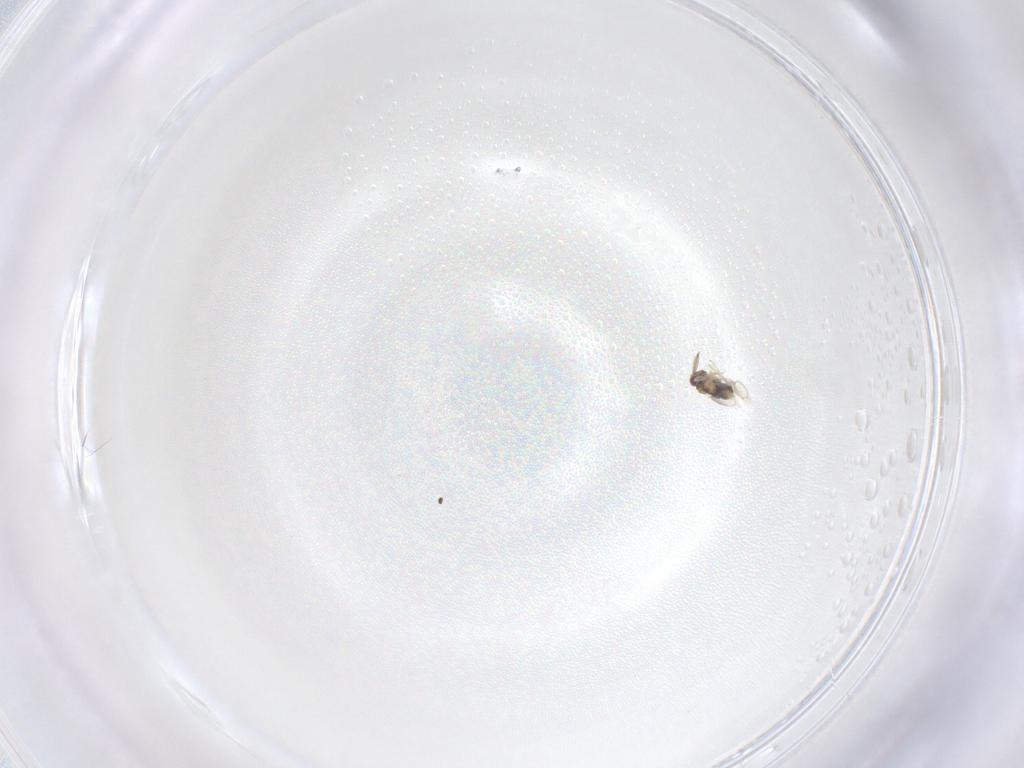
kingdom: Animalia
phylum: Arthropoda
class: Insecta
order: Hymenoptera
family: Aphelinidae
